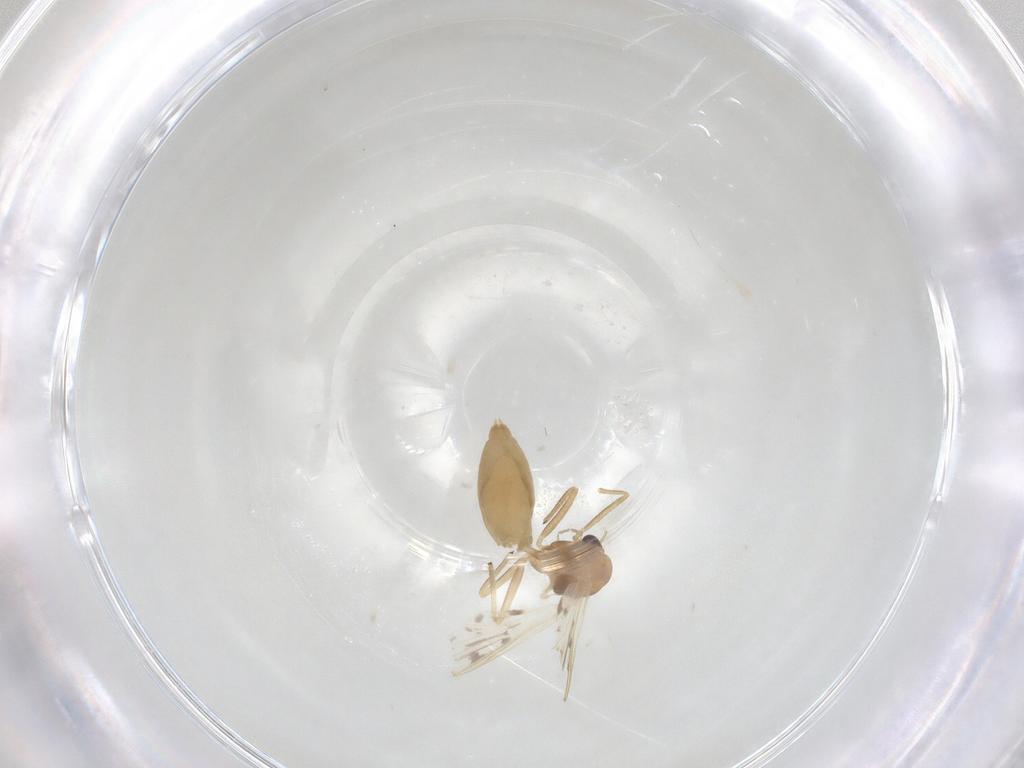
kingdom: Animalia
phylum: Arthropoda
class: Insecta
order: Diptera
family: Chironomidae
